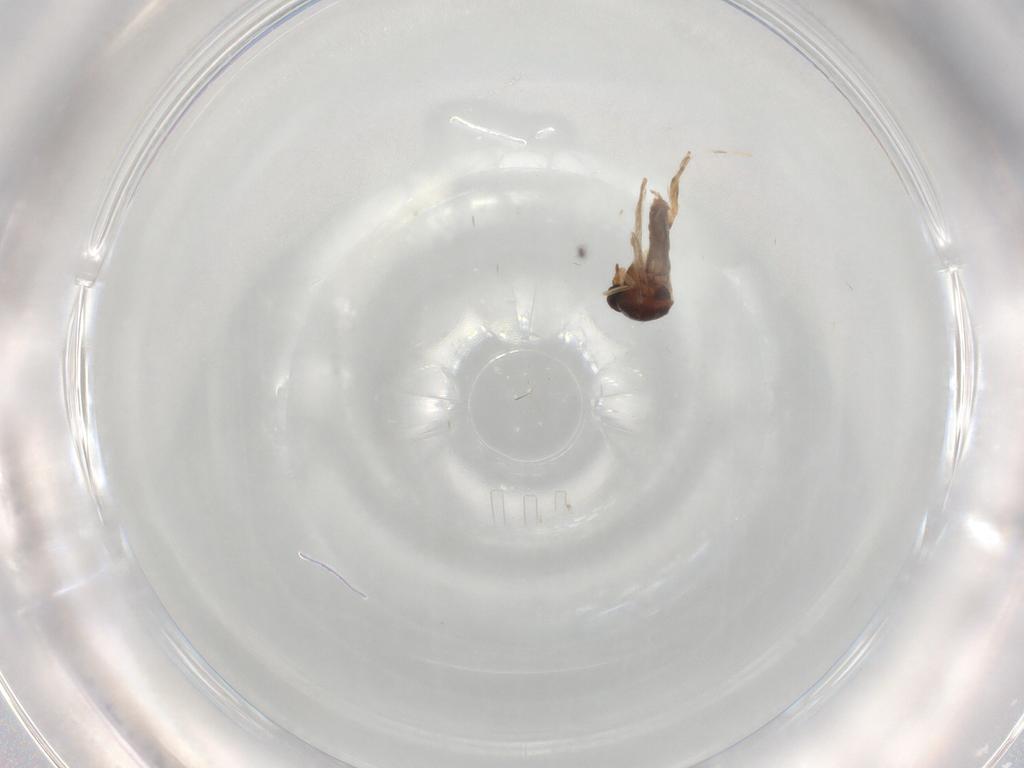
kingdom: Animalia
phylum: Arthropoda
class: Insecta
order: Diptera
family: Ceratopogonidae
